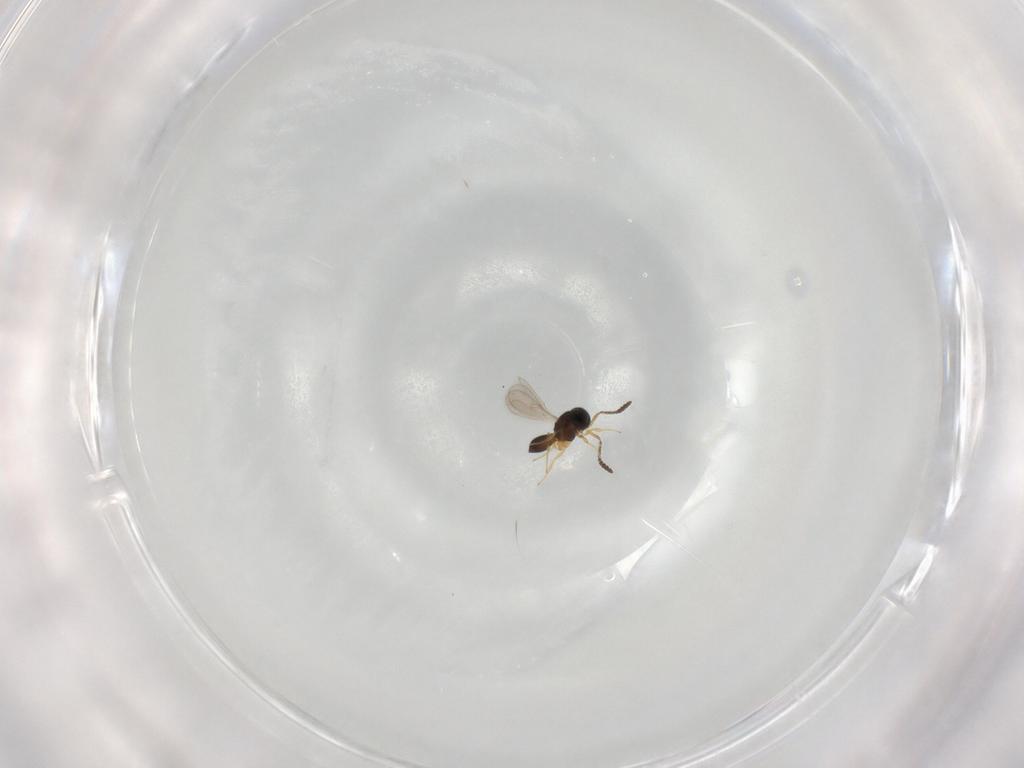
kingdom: Animalia
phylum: Arthropoda
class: Insecta
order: Hymenoptera
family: Scelionidae
